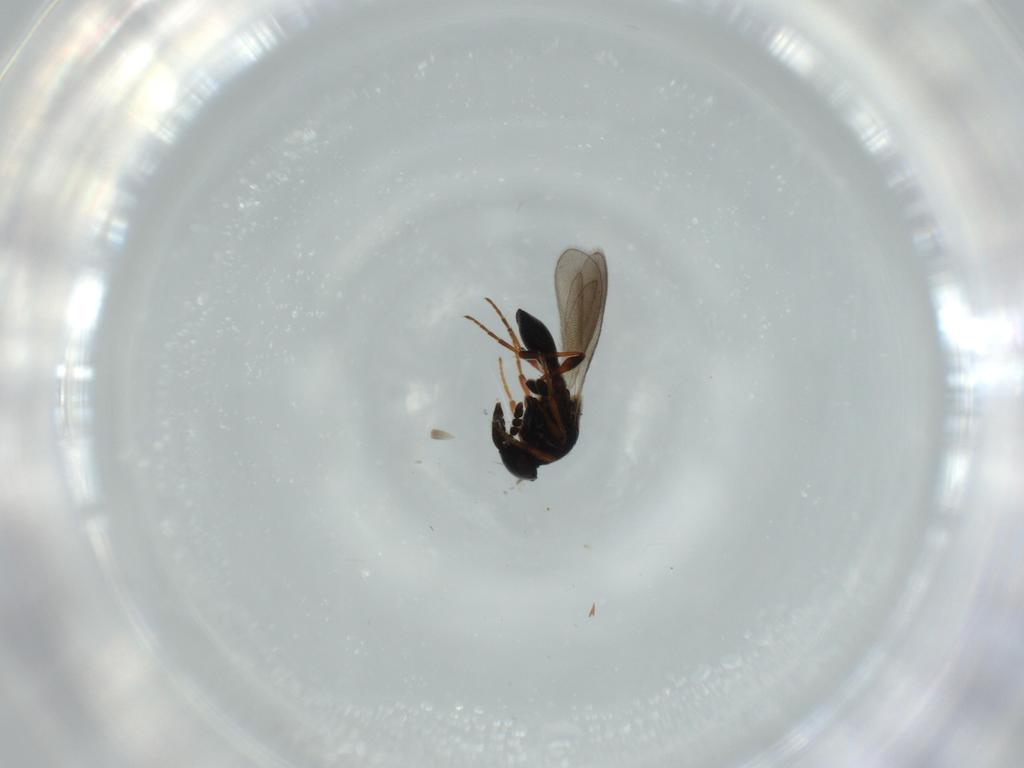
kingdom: Animalia
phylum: Arthropoda
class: Insecta
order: Hymenoptera
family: Platygastridae
